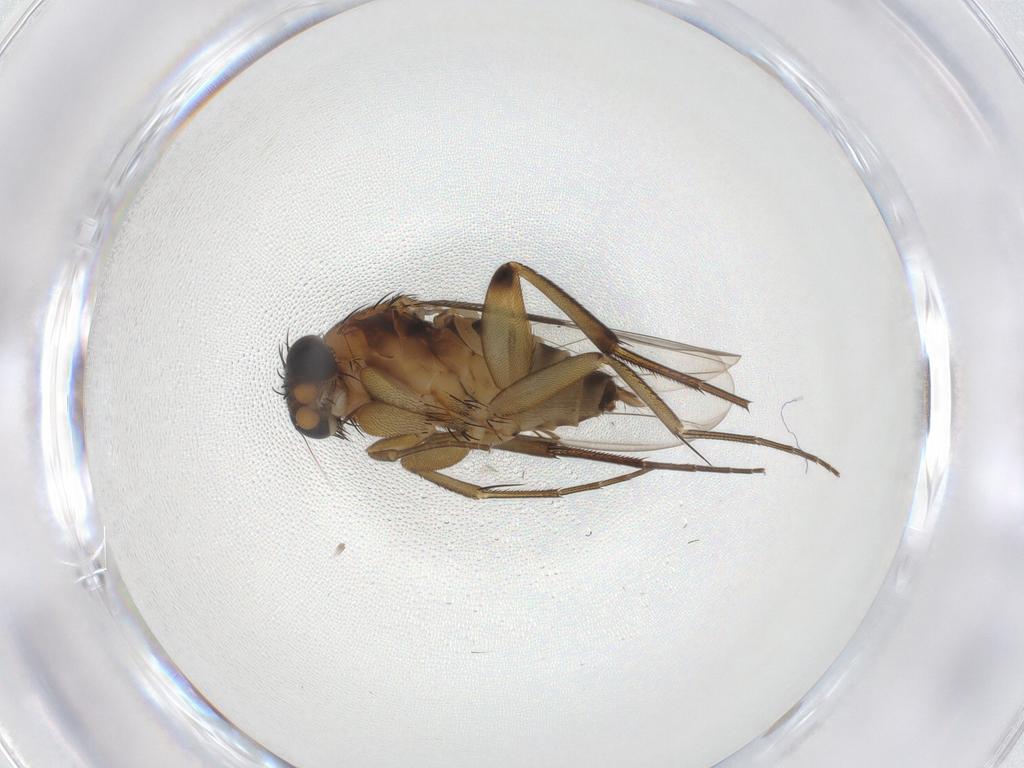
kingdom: Animalia
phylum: Arthropoda
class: Insecta
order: Diptera
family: Phoridae
